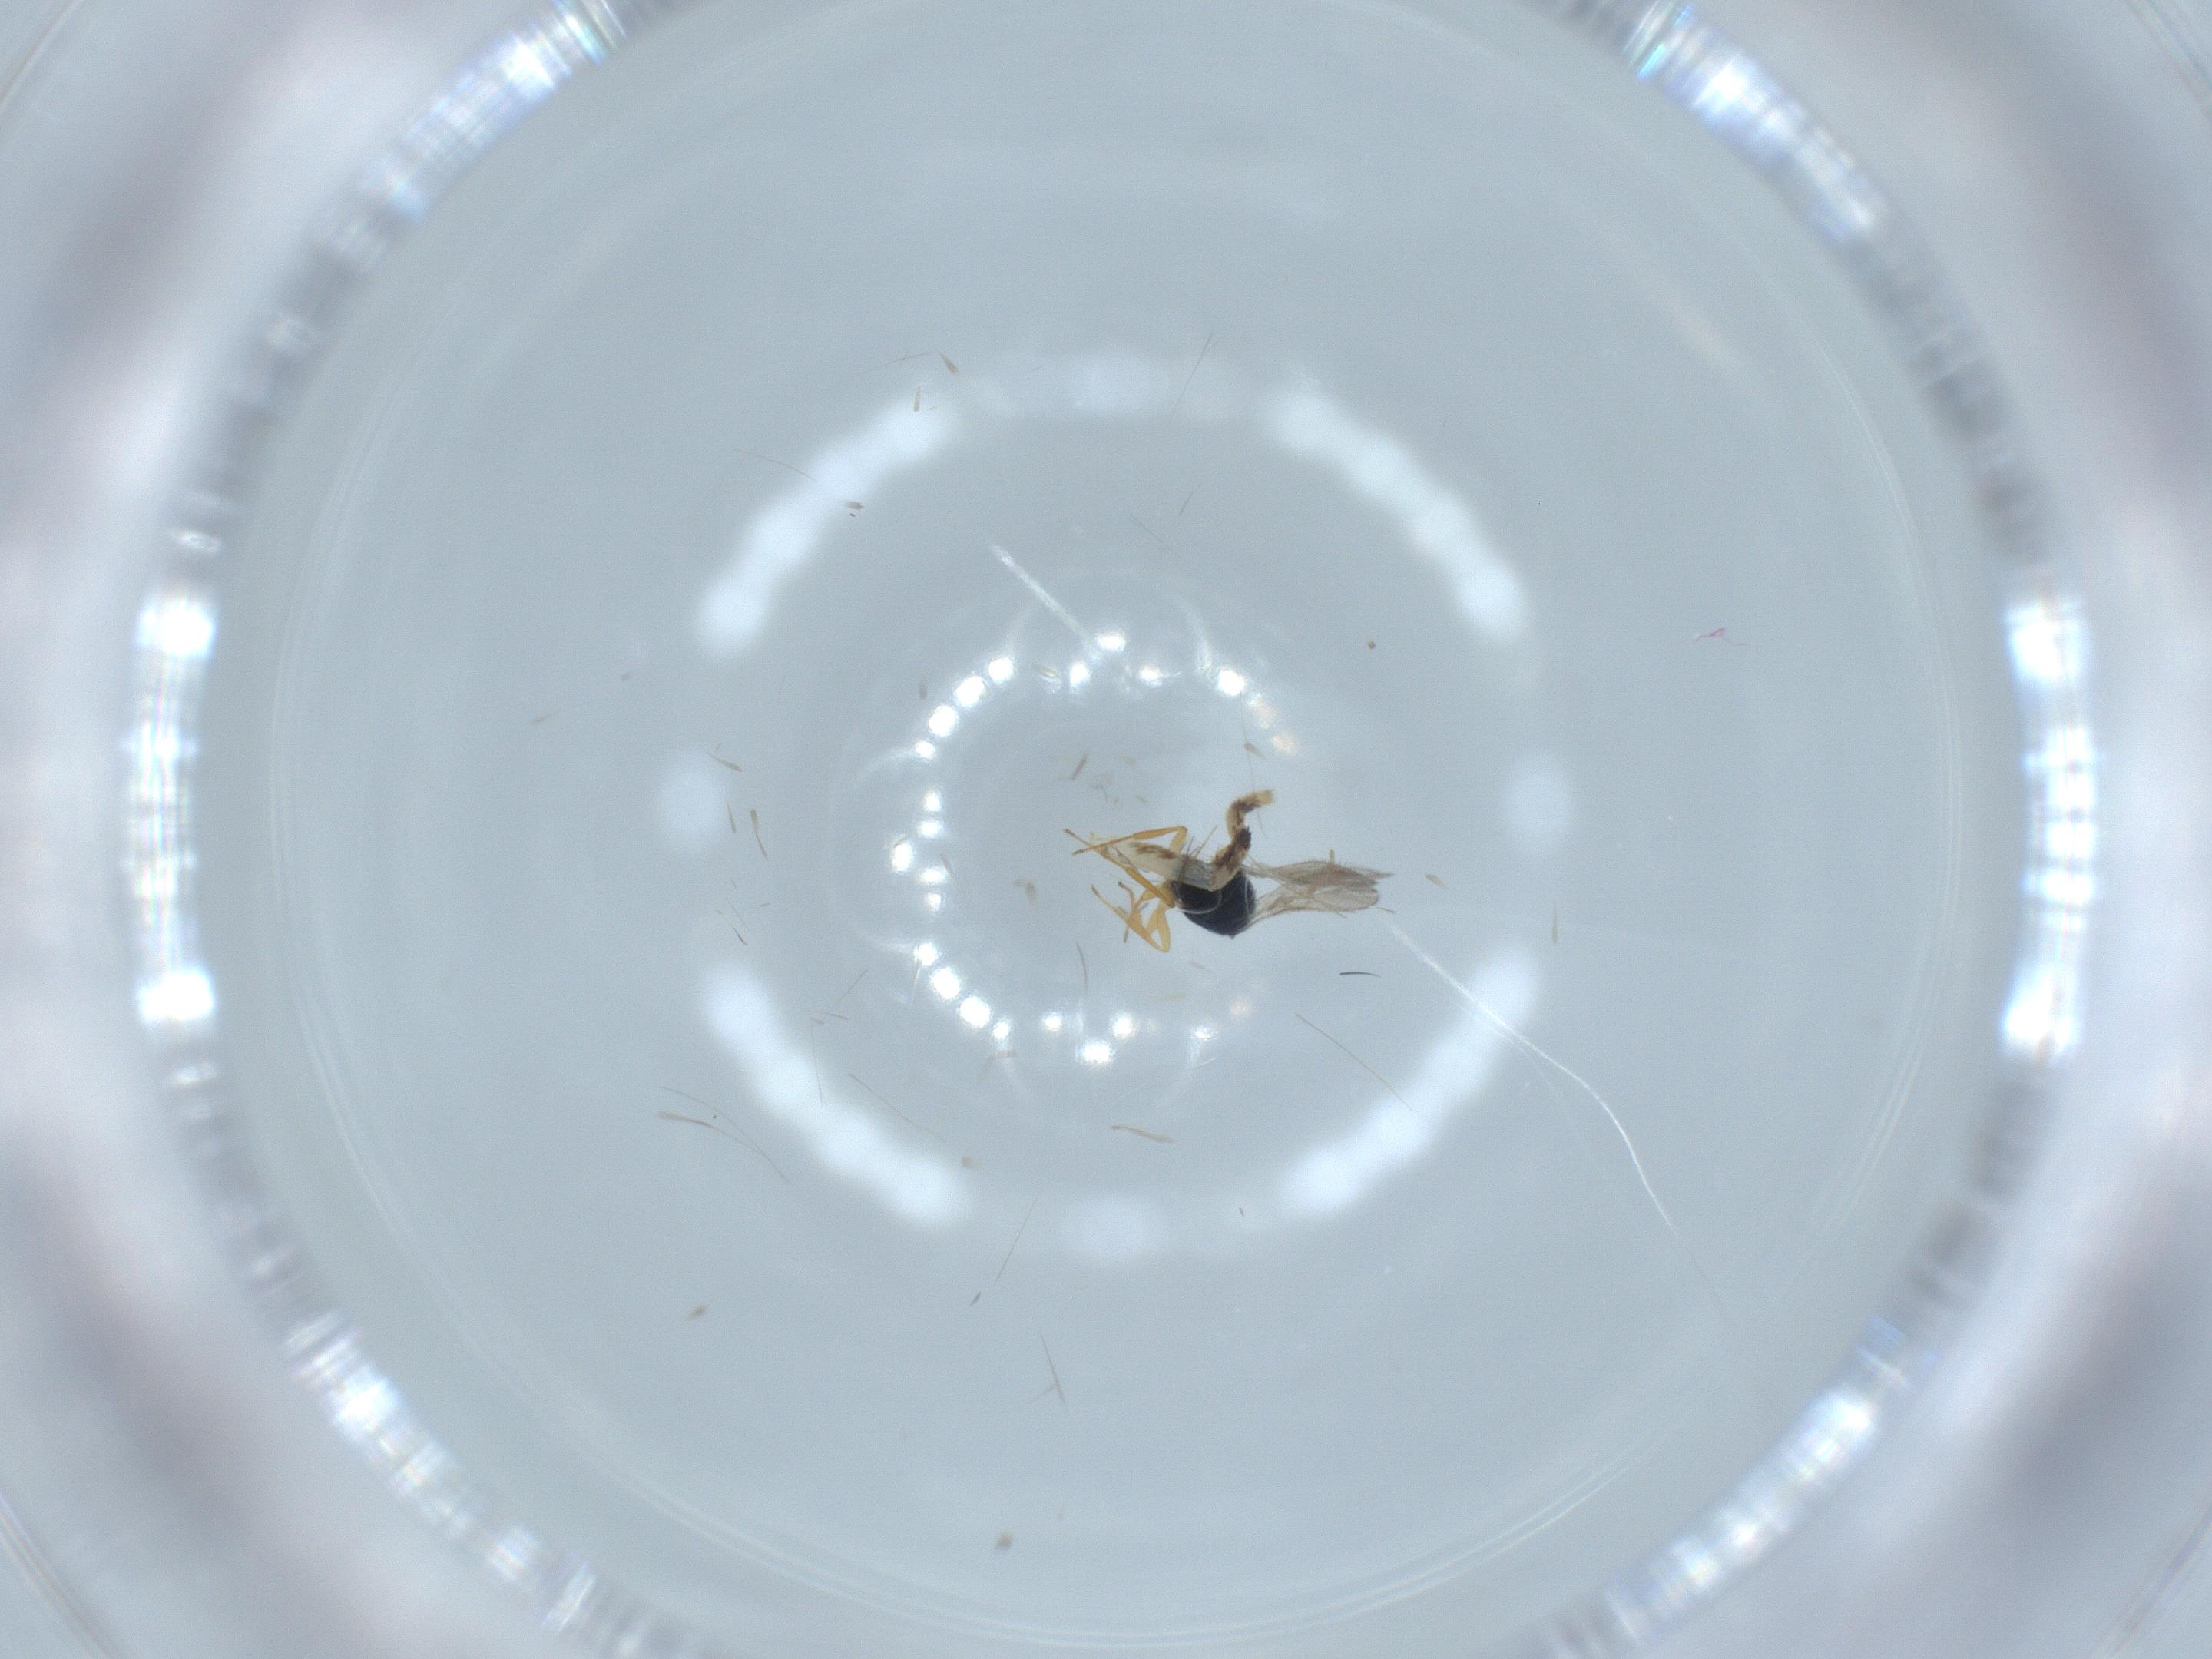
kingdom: Animalia
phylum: Arthropoda
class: Insecta
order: Hymenoptera
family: Scelionidae
